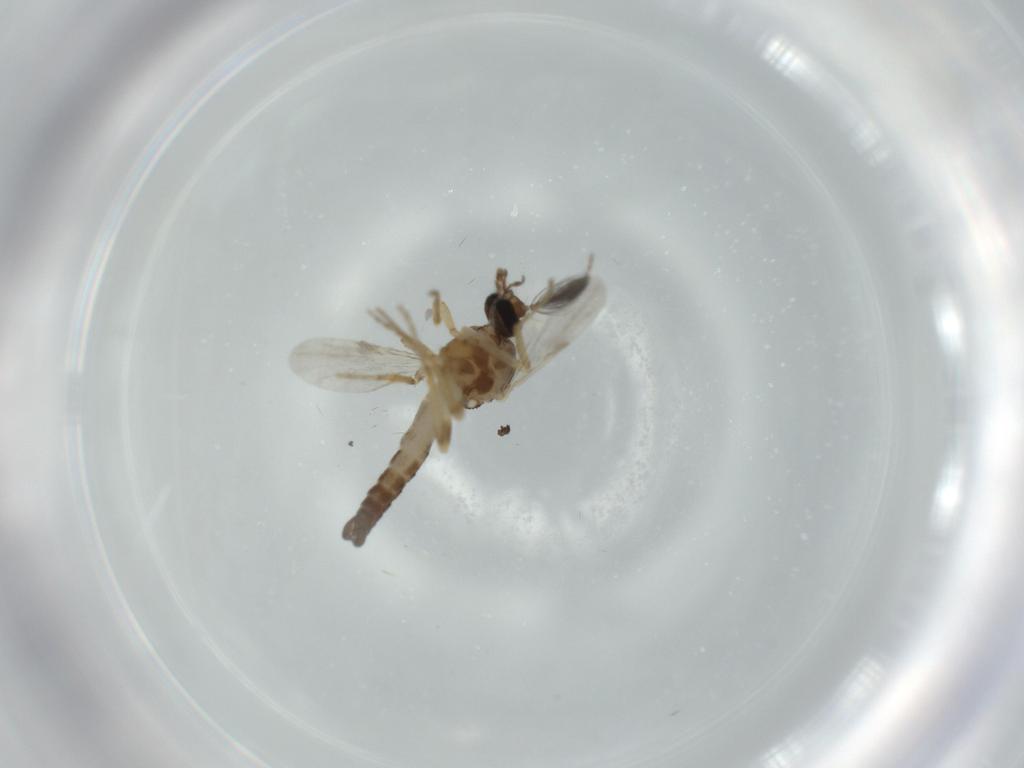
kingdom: Animalia
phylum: Arthropoda
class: Insecta
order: Diptera
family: Ceratopogonidae
